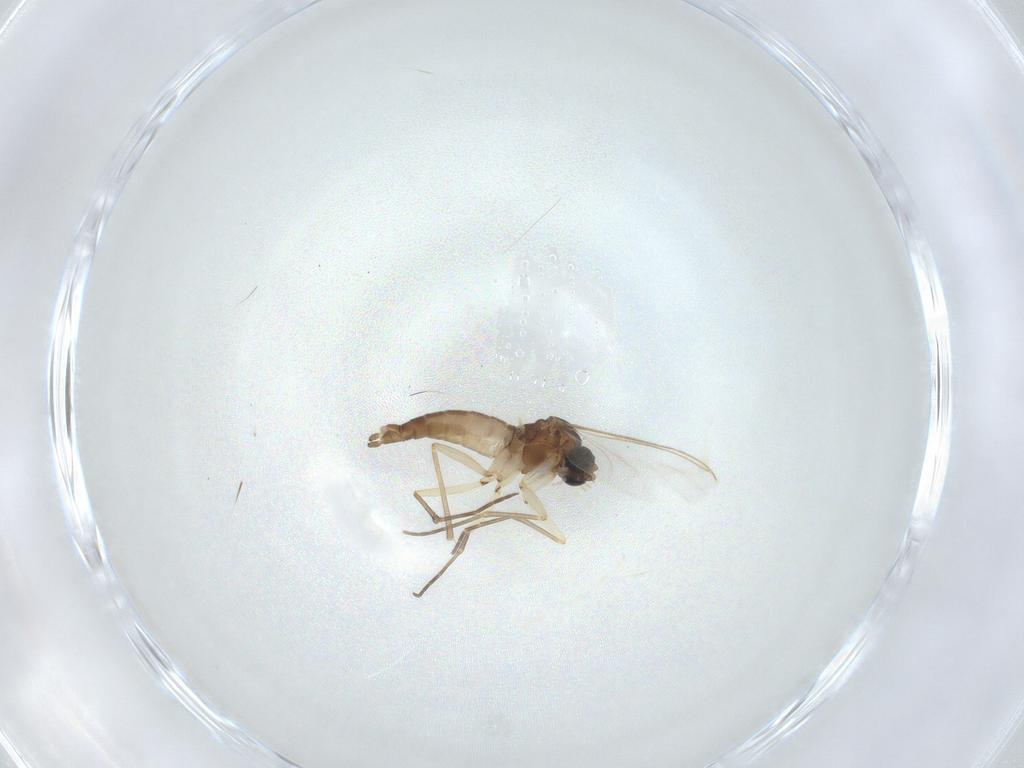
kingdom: Animalia
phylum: Arthropoda
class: Insecta
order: Diptera
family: Sciaridae
